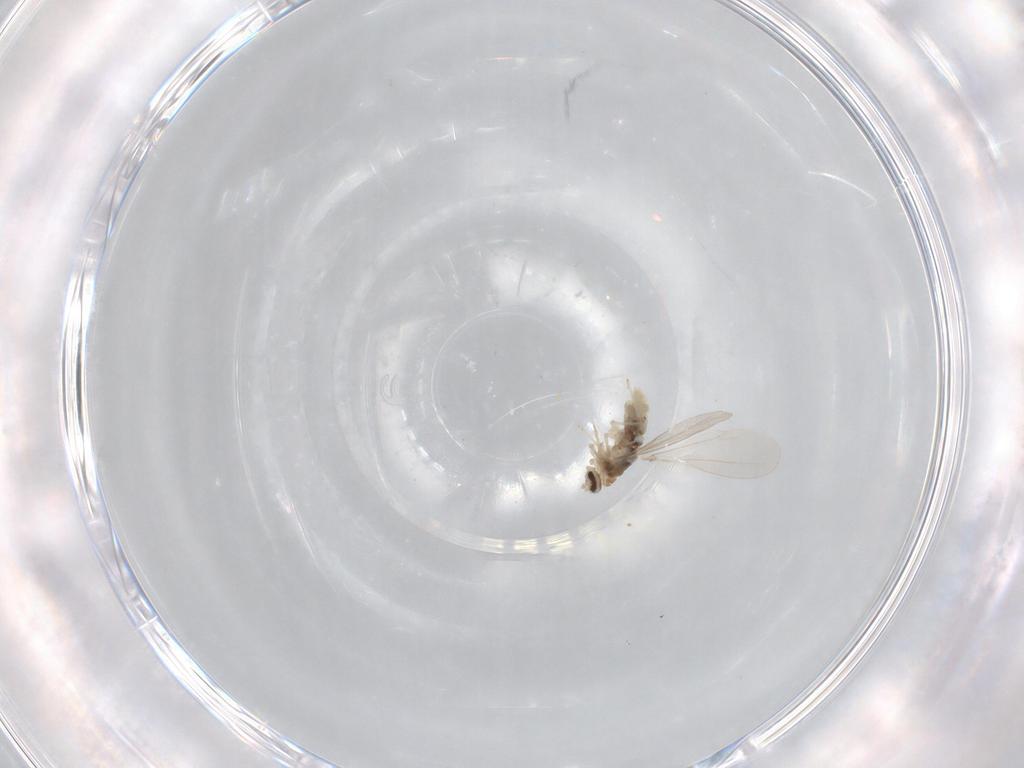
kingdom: Animalia
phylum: Arthropoda
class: Insecta
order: Diptera
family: Cecidomyiidae
